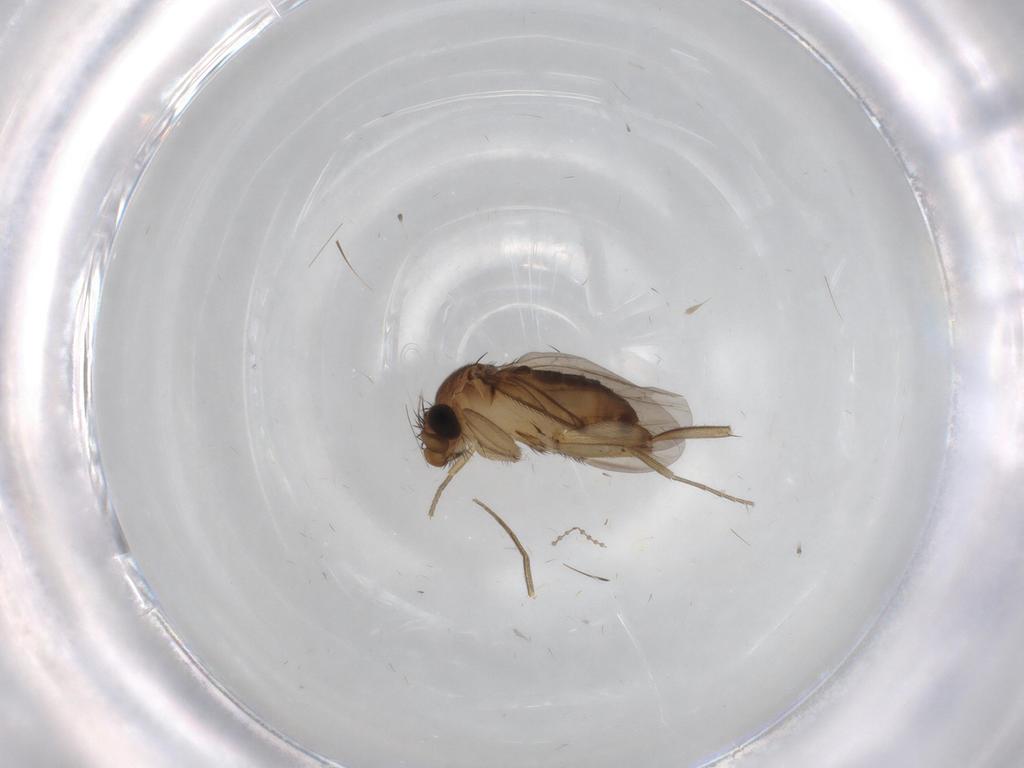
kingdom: Animalia
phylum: Arthropoda
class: Insecta
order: Diptera
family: Phoridae
